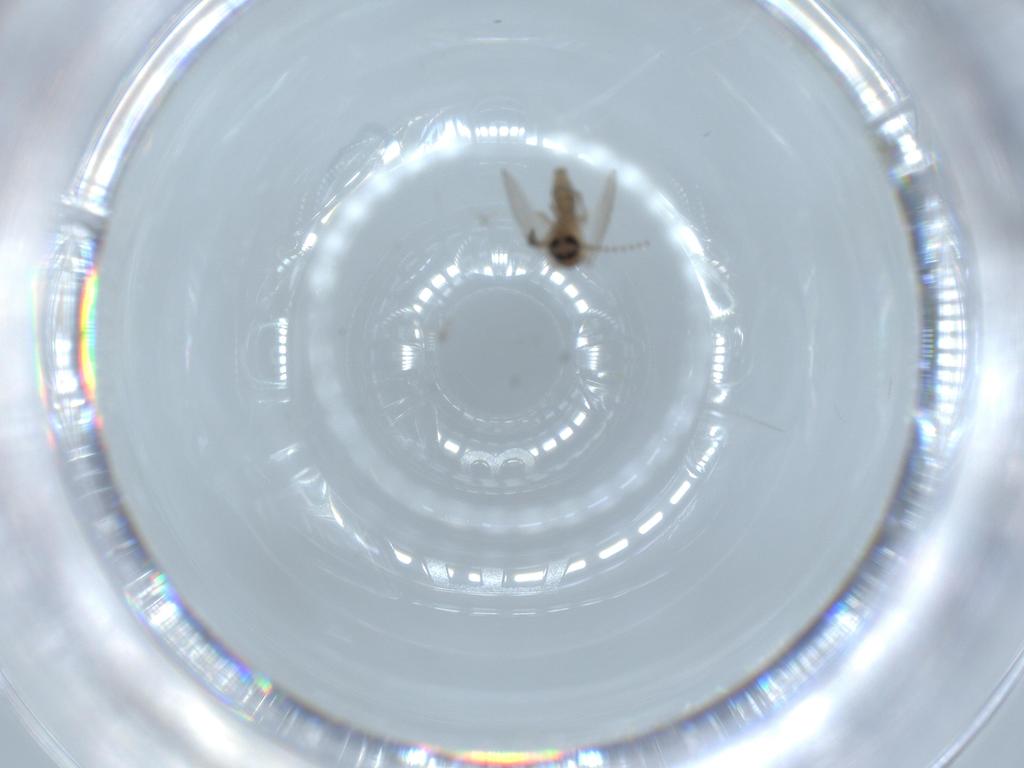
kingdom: Animalia
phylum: Arthropoda
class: Insecta
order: Diptera
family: Psychodidae
